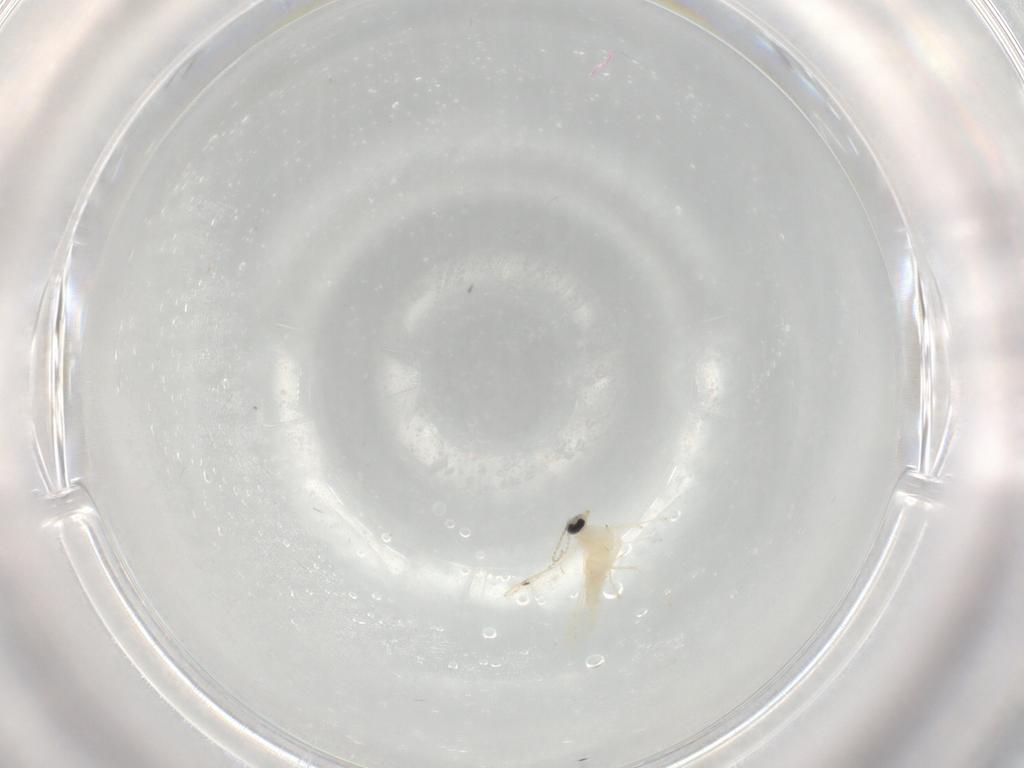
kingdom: Animalia
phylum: Arthropoda
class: Insecta
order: Diptera
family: Cecidomyiidae
